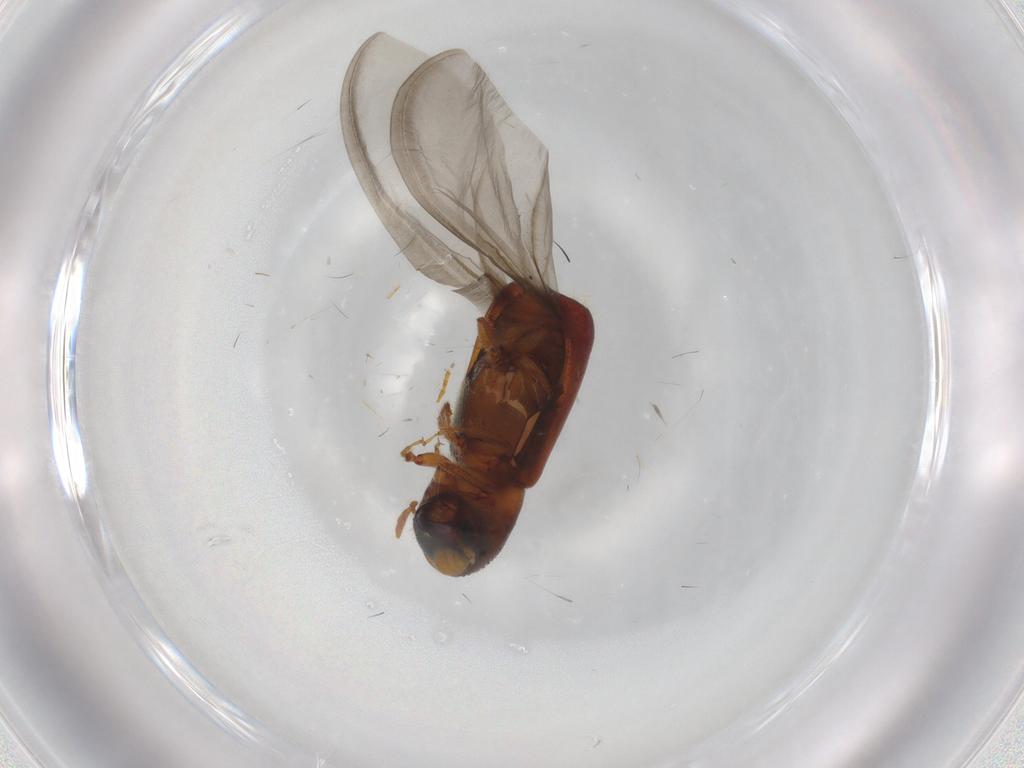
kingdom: Animalia
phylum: Arthropoda
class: Insecta
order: Coleoptera
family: Curculionidae
